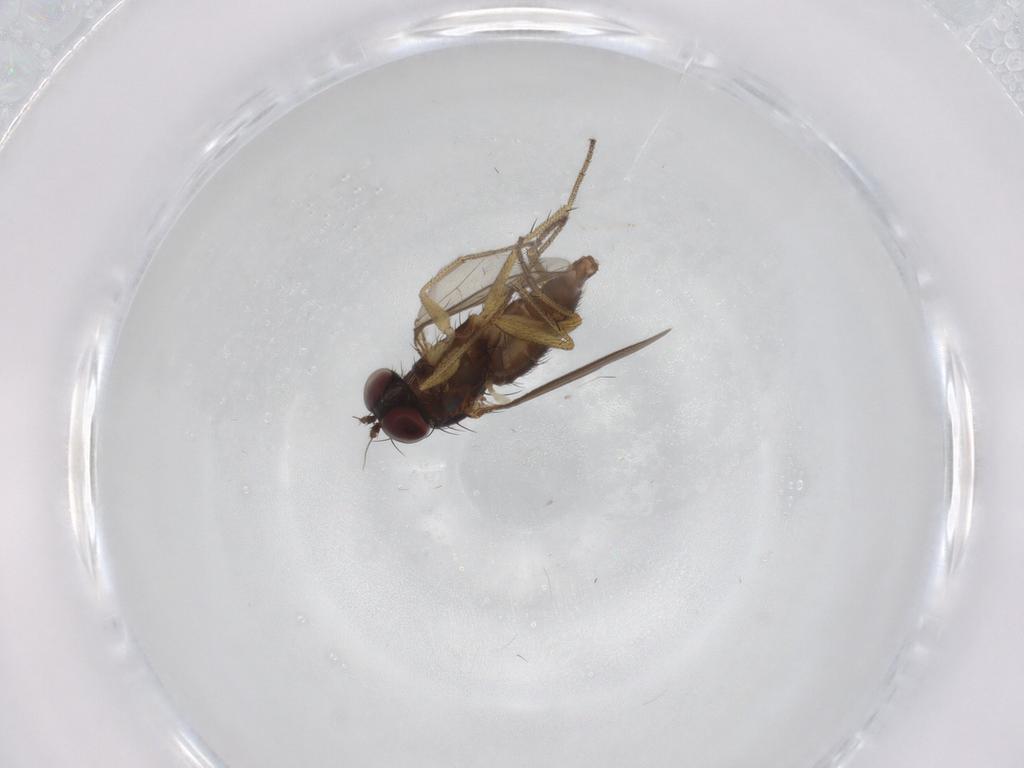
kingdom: Animalia
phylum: Arthropoda
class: Insecta
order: Diptera
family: Dolichopodidae
